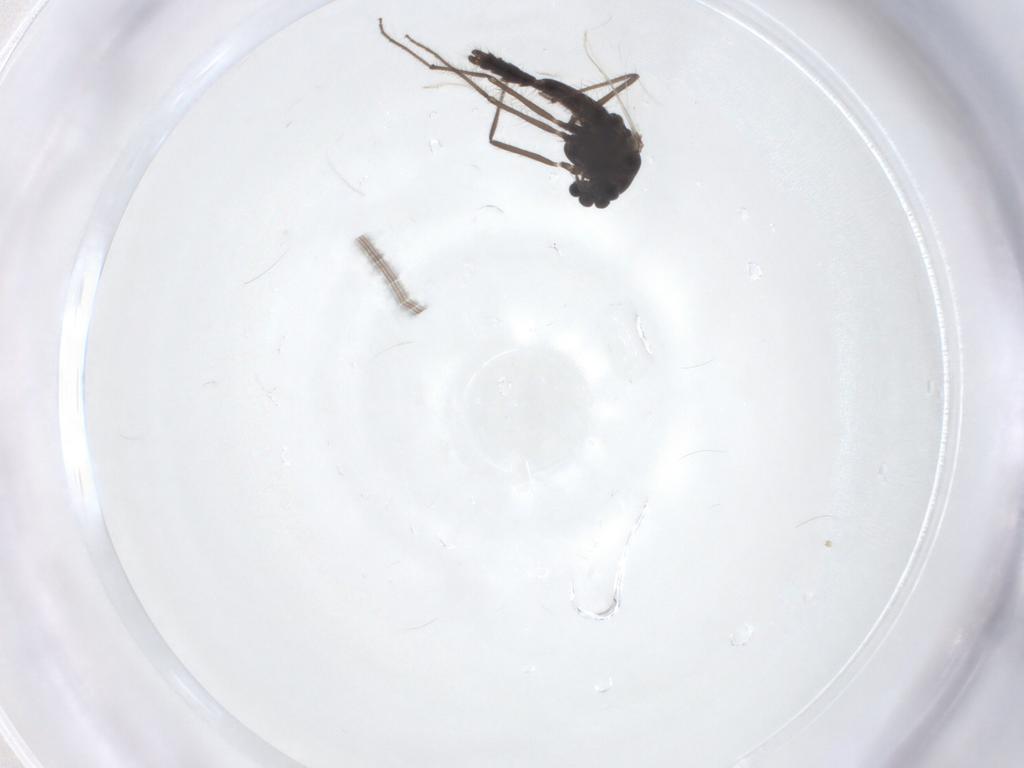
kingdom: Animalia
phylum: Arthropoda
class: Insecta
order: Diptera
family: Chironomidae
